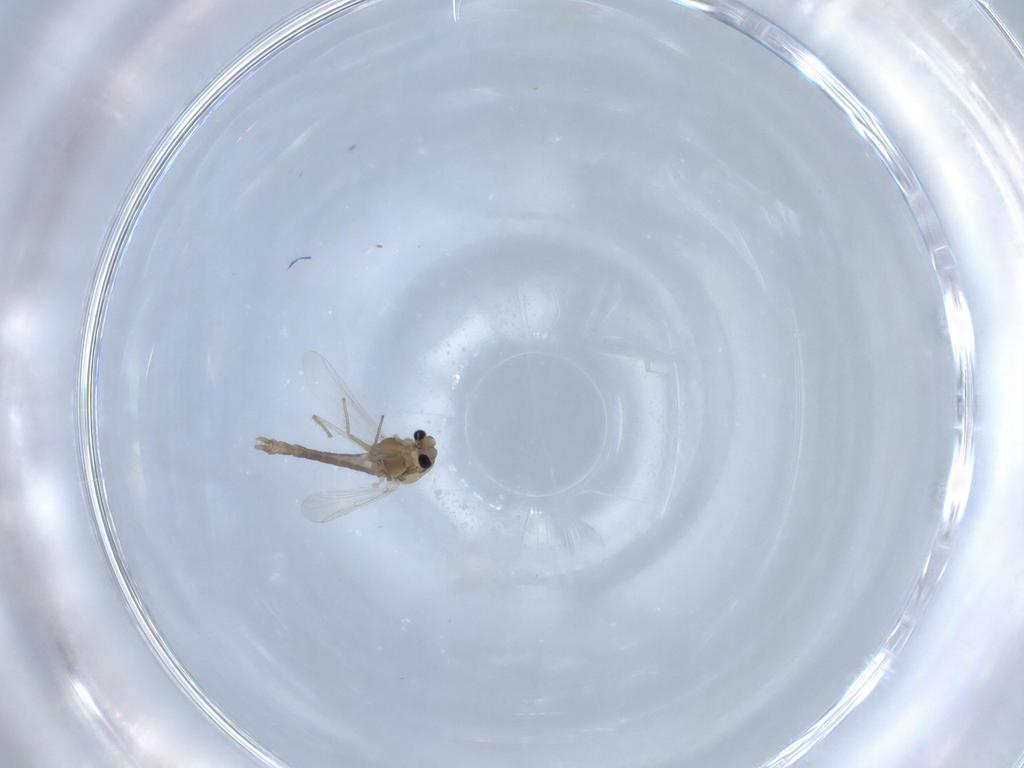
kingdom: Animalia
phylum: Arthropoda
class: Insecta
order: Diptera
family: Chironomidae
